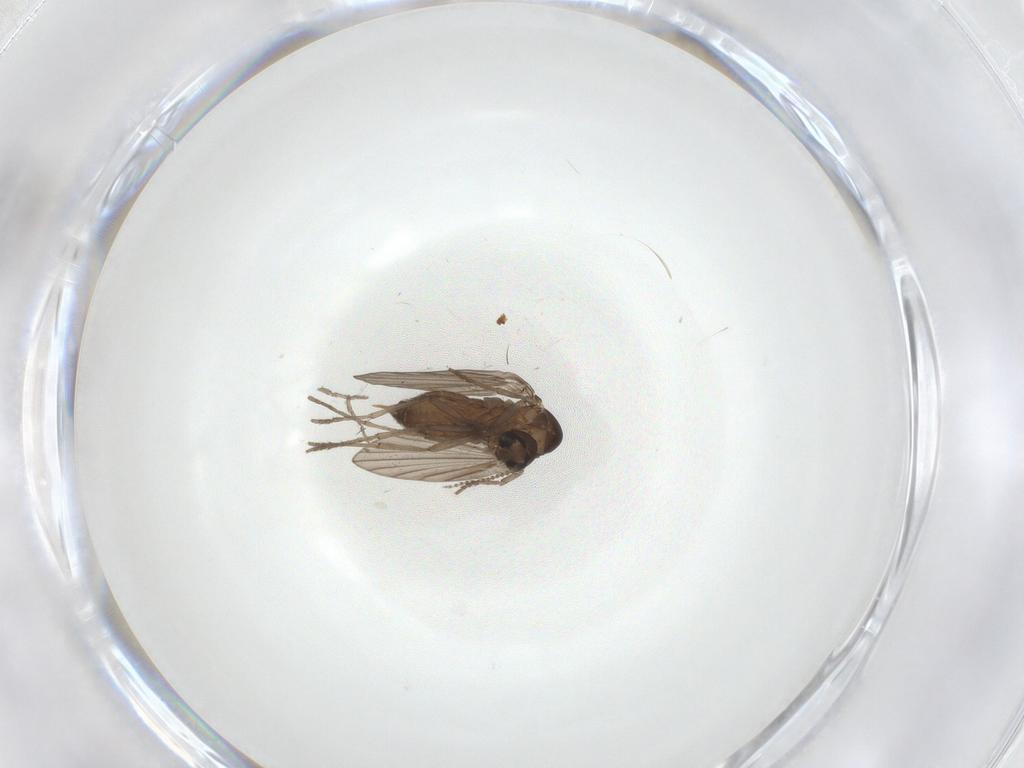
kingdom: Animalia
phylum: Arthropoda
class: Insecta
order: Diptera
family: Psychodidae
